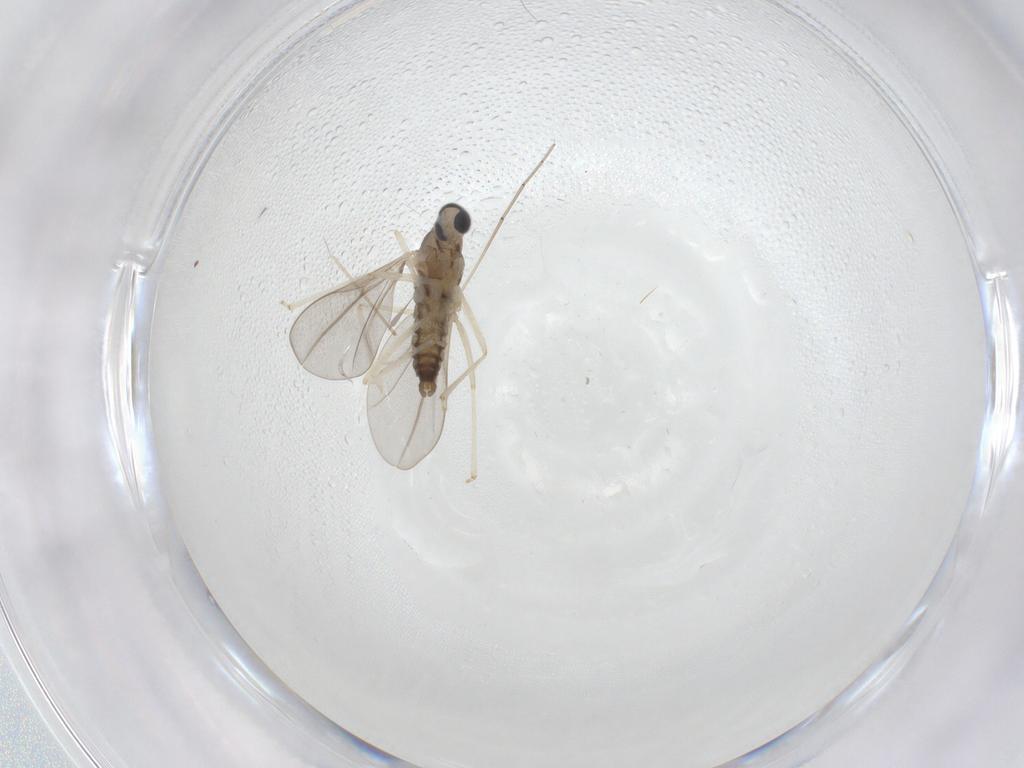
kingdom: Animalia
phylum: Arthropoda
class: Insecta
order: Diptera
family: Cecidomyiidae
